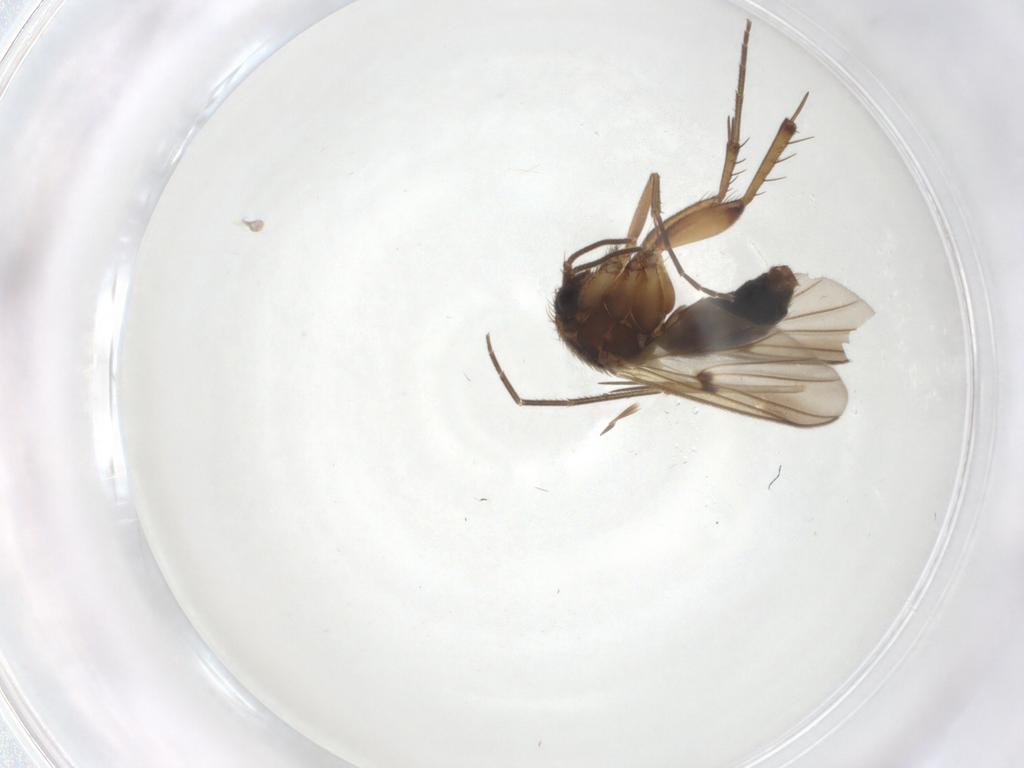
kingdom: Animalia
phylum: Arthropoda
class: Insecta
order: Diptera
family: Mycetophilidae
